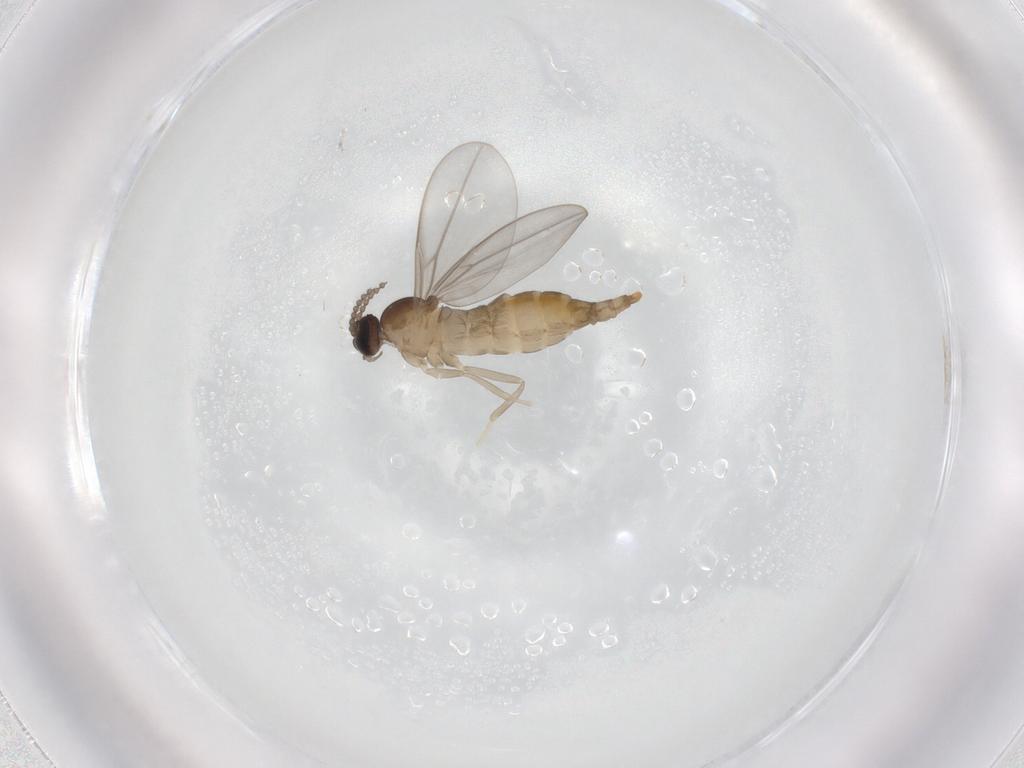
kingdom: Animalia
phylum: Arthropoda
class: Insecta
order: Diptera
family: Cecidomyiidae
